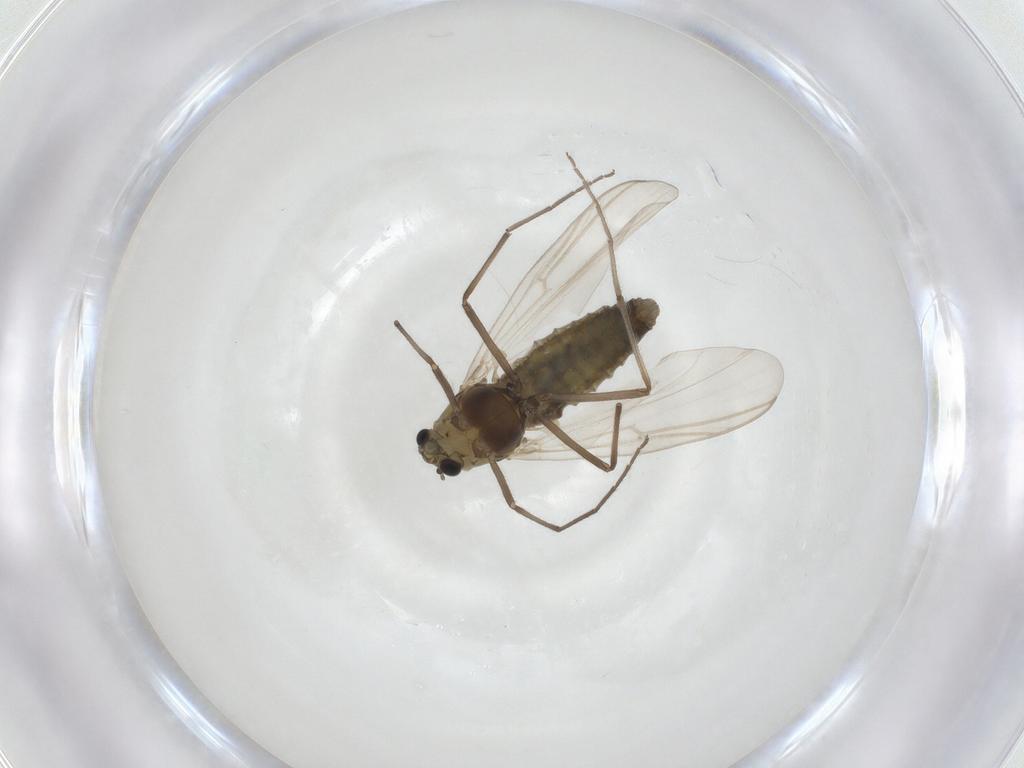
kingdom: Animalia
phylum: Arthropoda
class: Insecta
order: Diptera
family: Chironomidae
